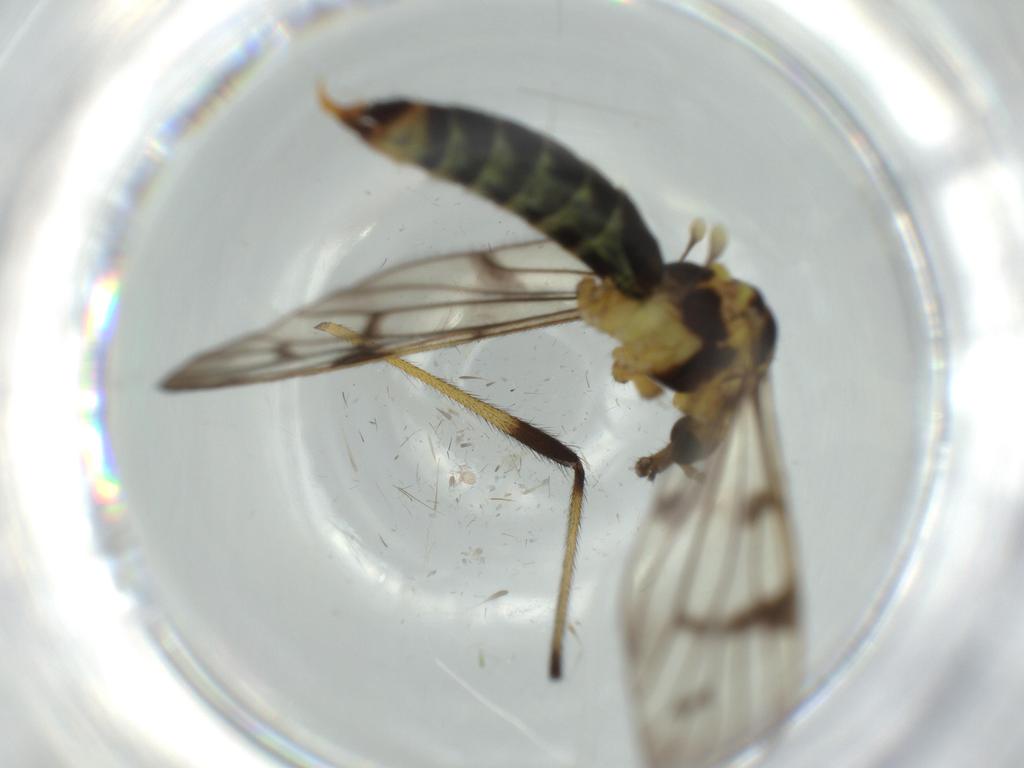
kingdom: Animalia
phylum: Arthropoda
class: Insecta
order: Diptera
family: Limoniidae
